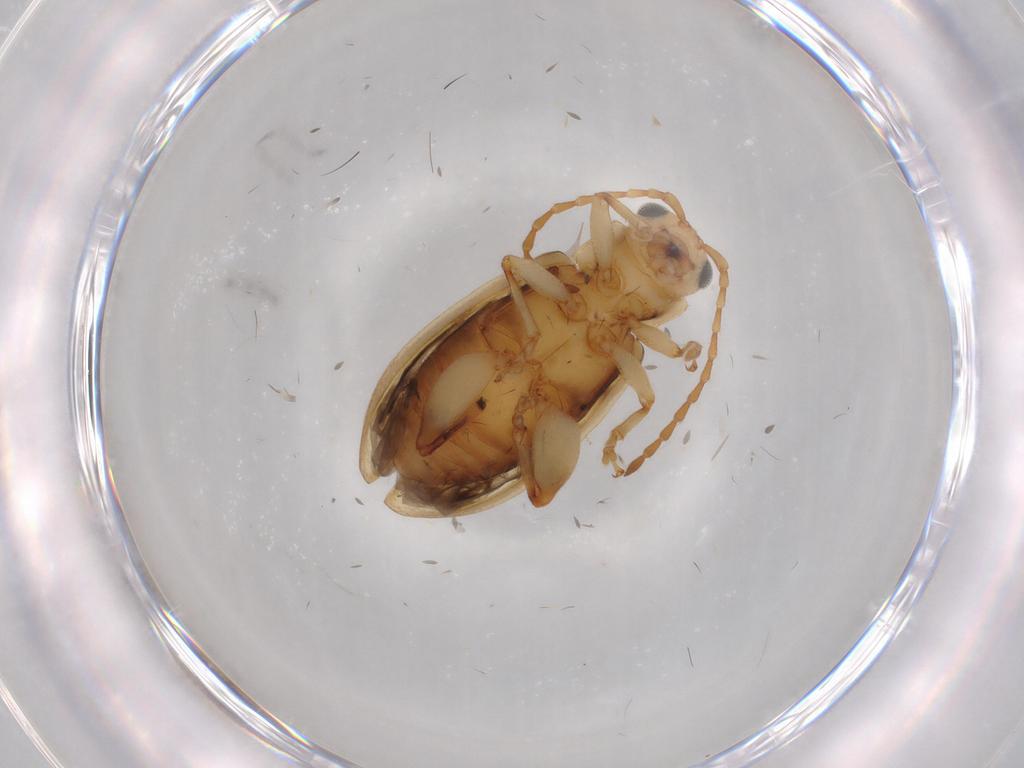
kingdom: Animalia
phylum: Arthropoda
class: Insecta
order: Coleoptera
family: Chrysomelidae
